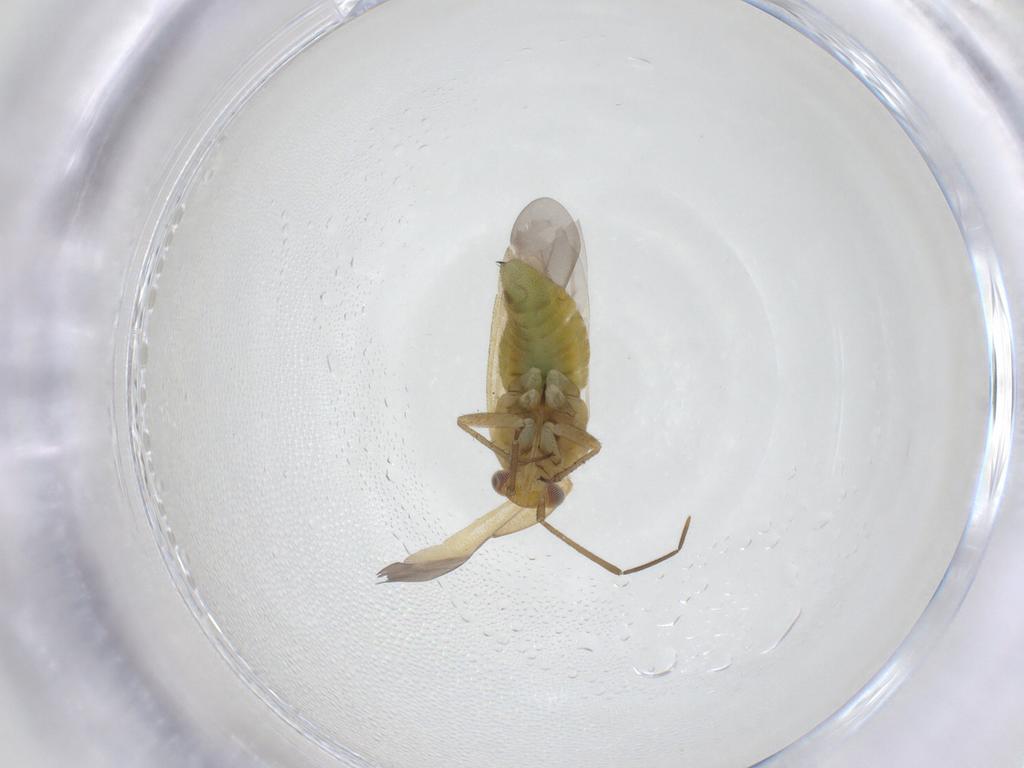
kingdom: Animalia
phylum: Arthropoda
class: Insecta
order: Hemiptera
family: Miridae
